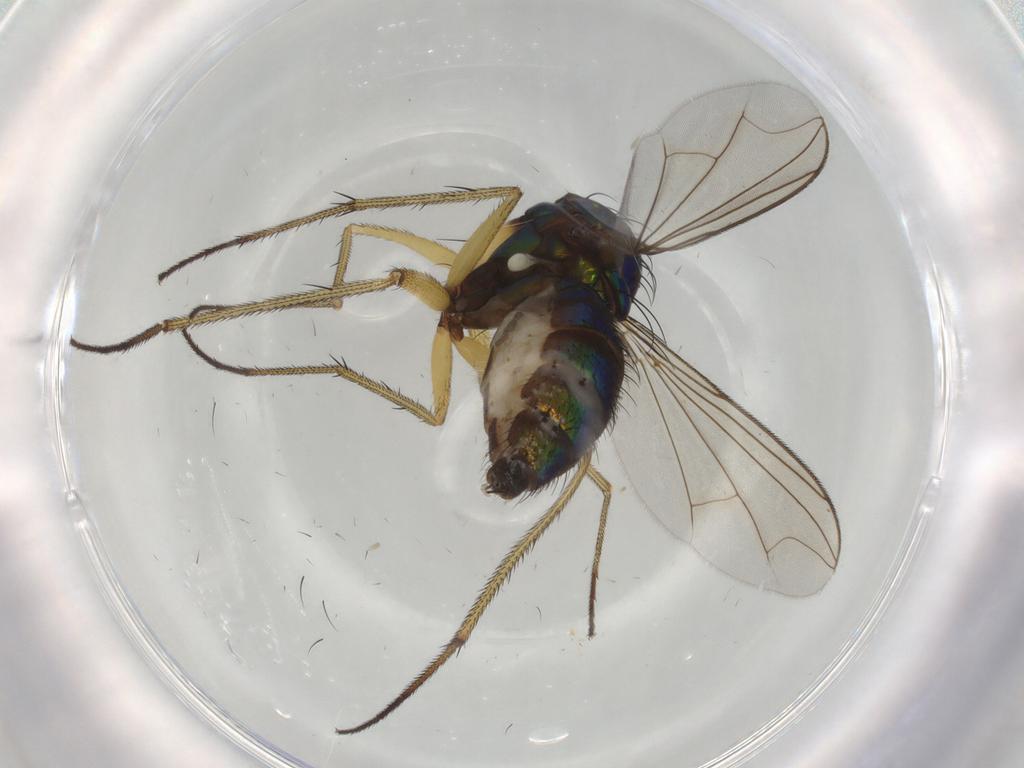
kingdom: Animalia
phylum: Arthropoda
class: Insecta
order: Diptera
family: Dolichopodidae
